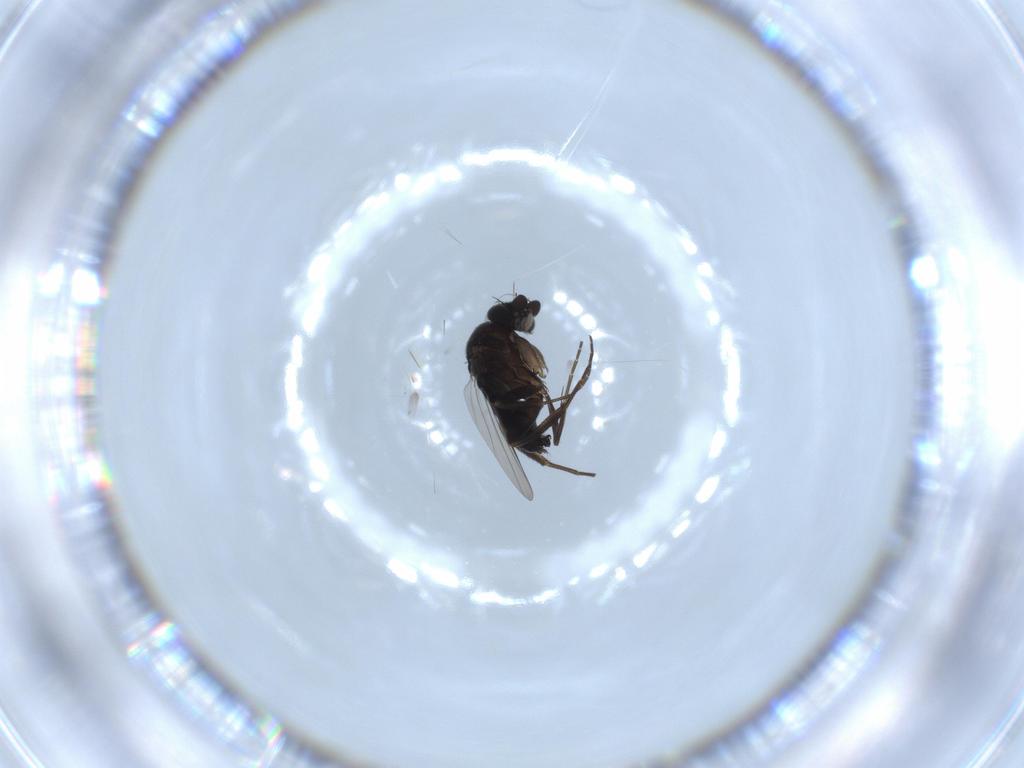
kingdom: Animalia
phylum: Arthropoda
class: Insecta
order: Diptera
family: Phoridae
